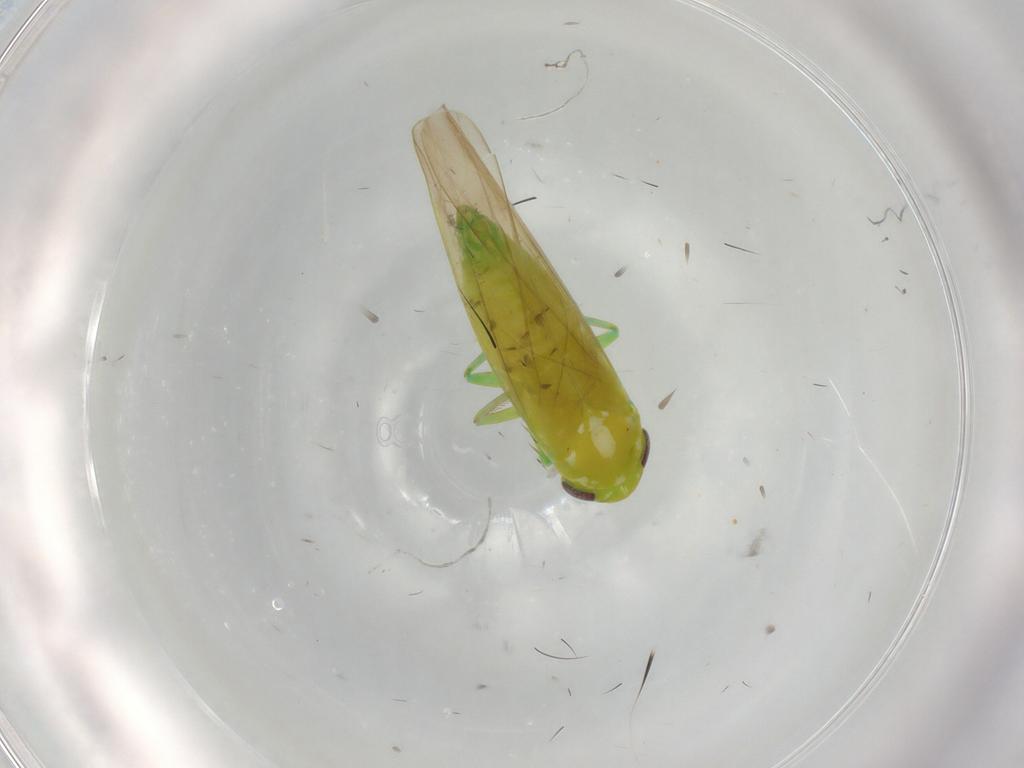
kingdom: Animalia
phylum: Arthropoda
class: Insecta
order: Hemiptera
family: Cicadellidae
